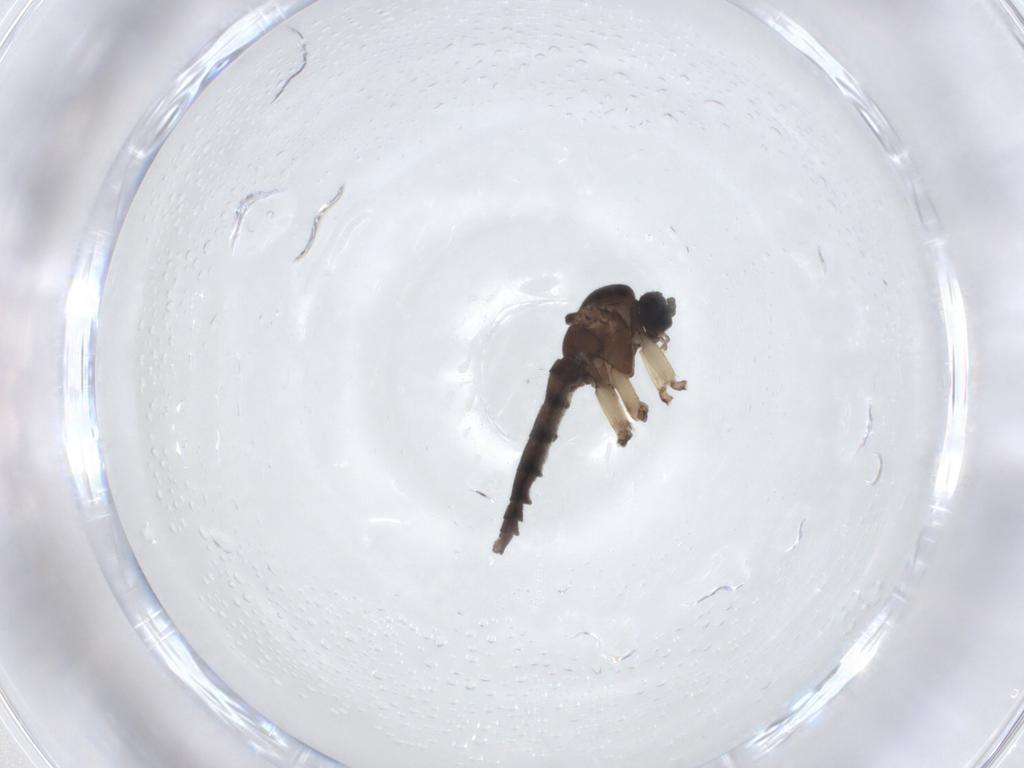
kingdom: Animalia
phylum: Arthropoda
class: Insecta
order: Diptera
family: Sciaridae
